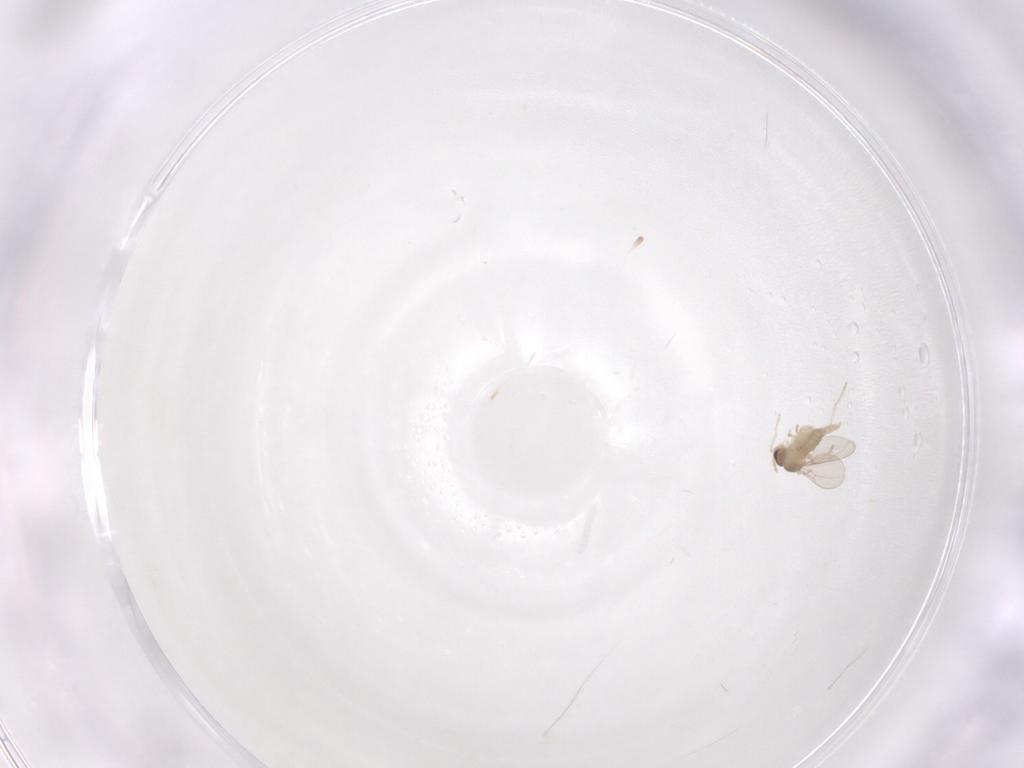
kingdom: Animalia
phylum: Arthropoda
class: Insecta
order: Diptera
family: Cecidomyiidae
